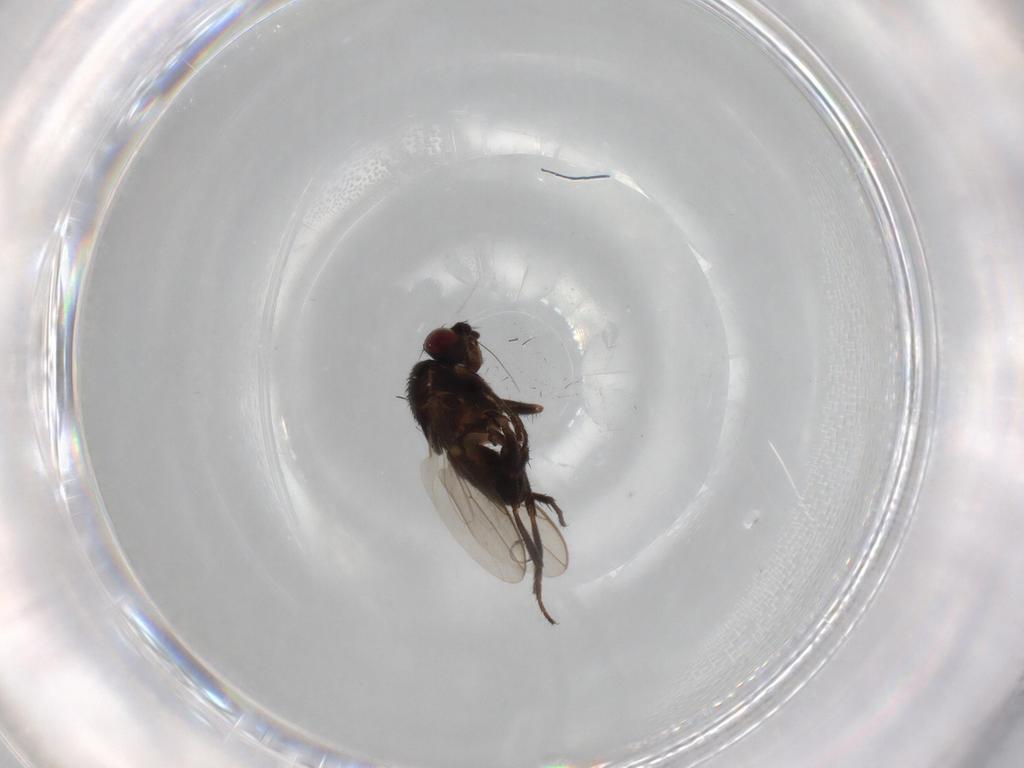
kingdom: Animalia
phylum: Arthropoda
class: Insecta
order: Diptera
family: Sphaeroceridae
